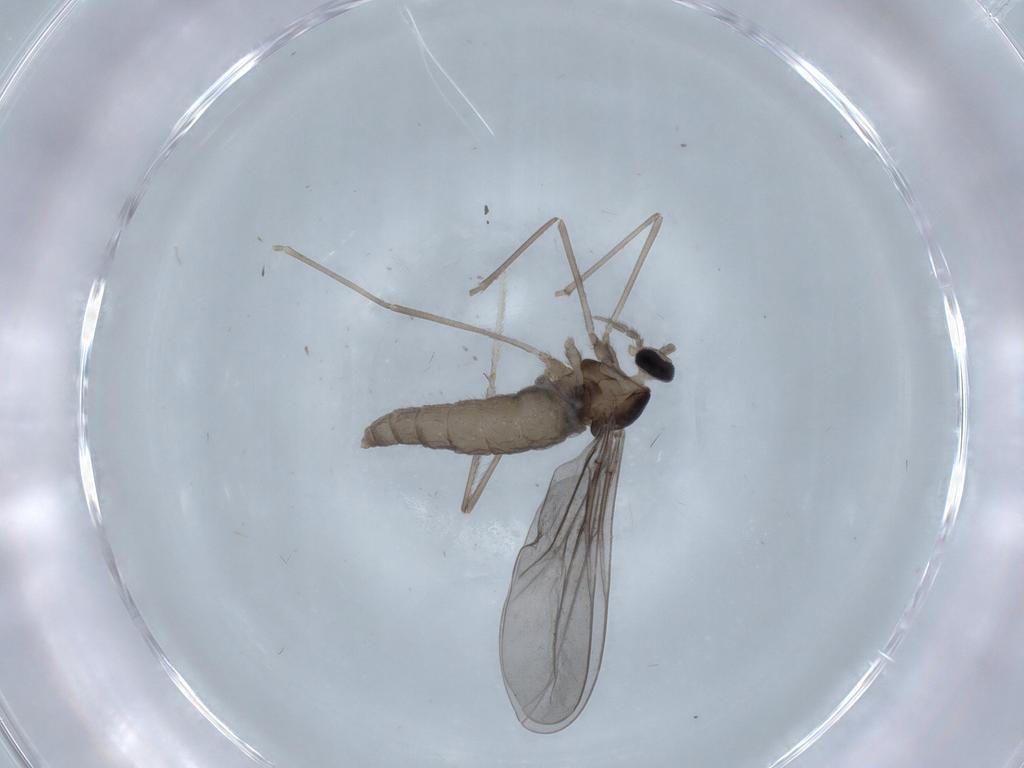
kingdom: Animalia
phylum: Arthropoda
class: Insecta
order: Diptera
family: Cecidomyiidae
